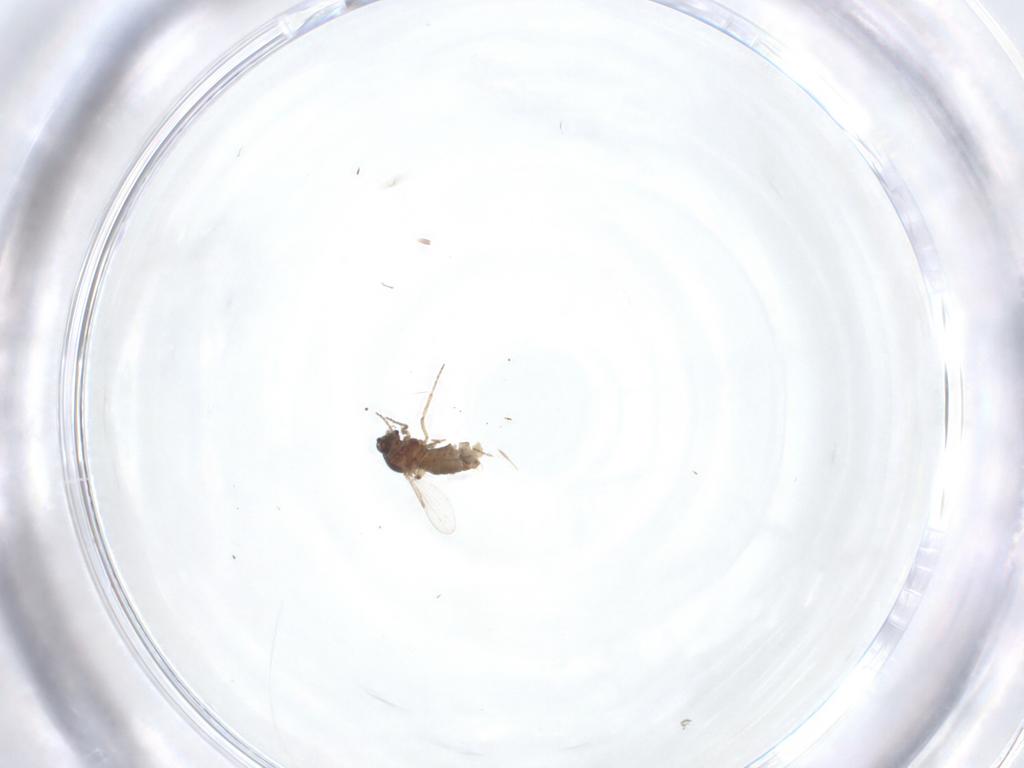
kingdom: Animalia
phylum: Arthropoda
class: Insecta
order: Diptera
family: Ceratopogonidae
